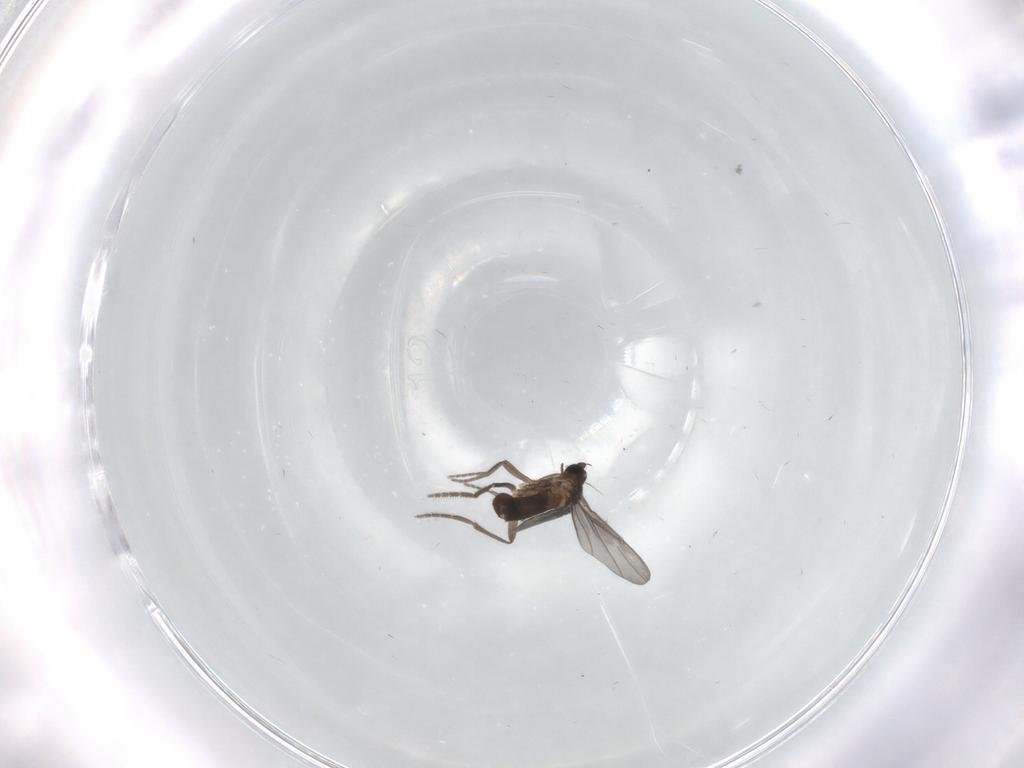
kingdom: Animalia
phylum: Arthropoda
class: Insecta
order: Diptera
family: Phoridae
